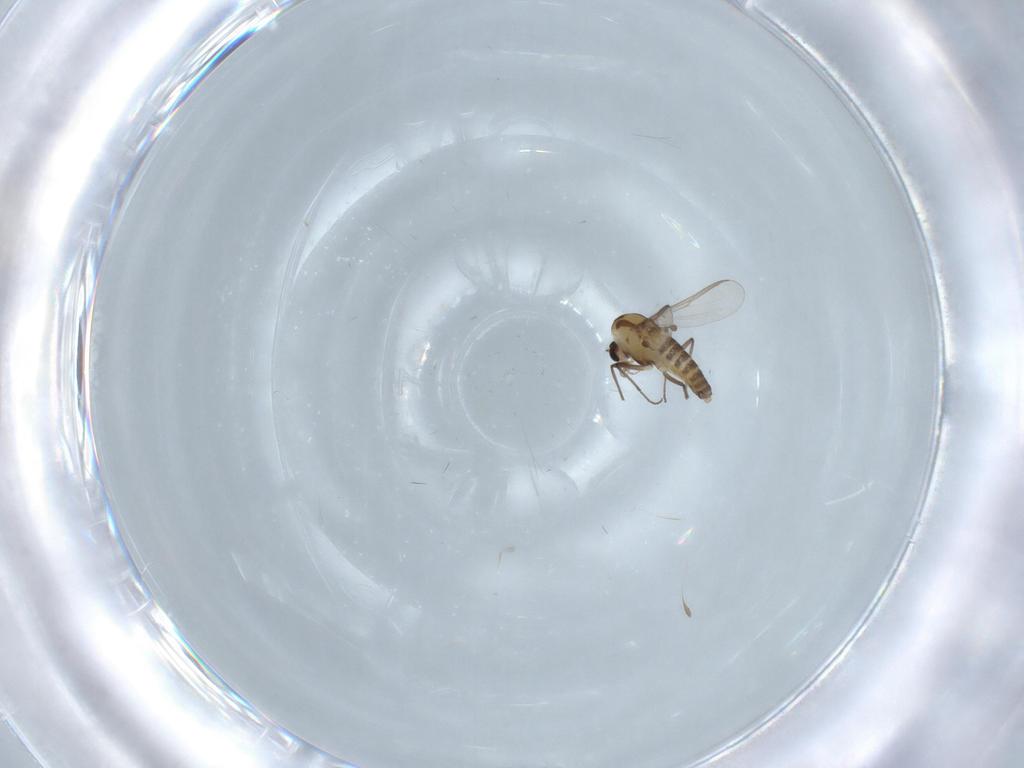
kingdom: Animalia
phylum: Arthropoda
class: Insecta
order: Diptera
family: Chironomidae
